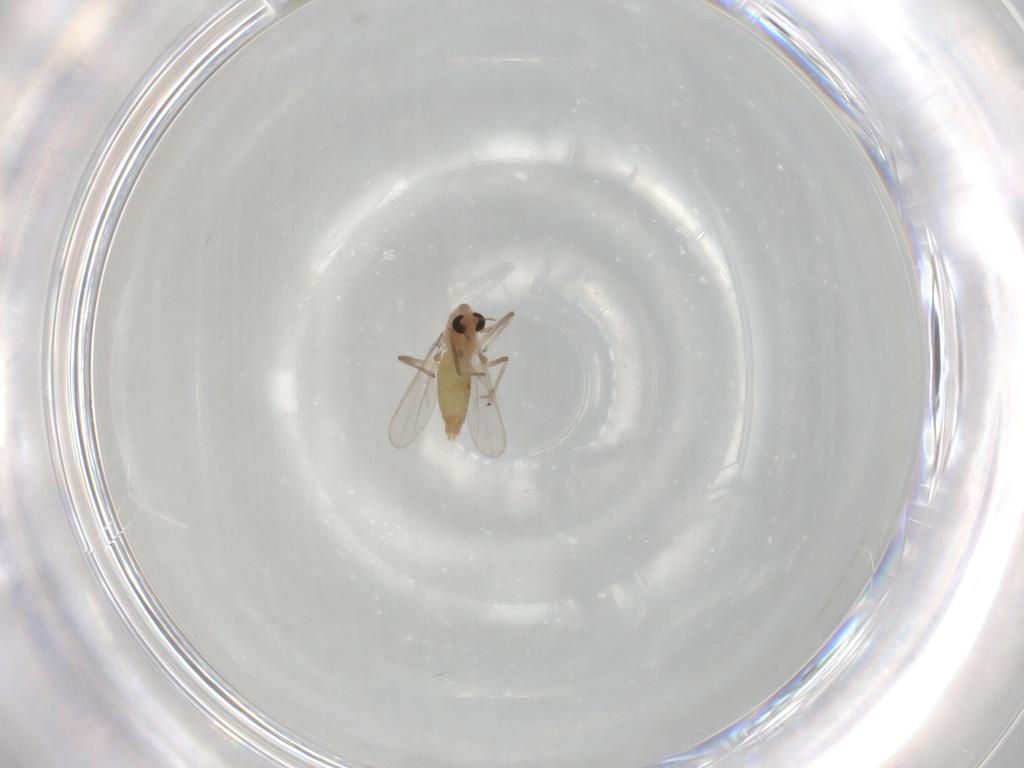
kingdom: Animalia
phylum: Arthropoda
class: Insecta
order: Diptera
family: Chironomidae
